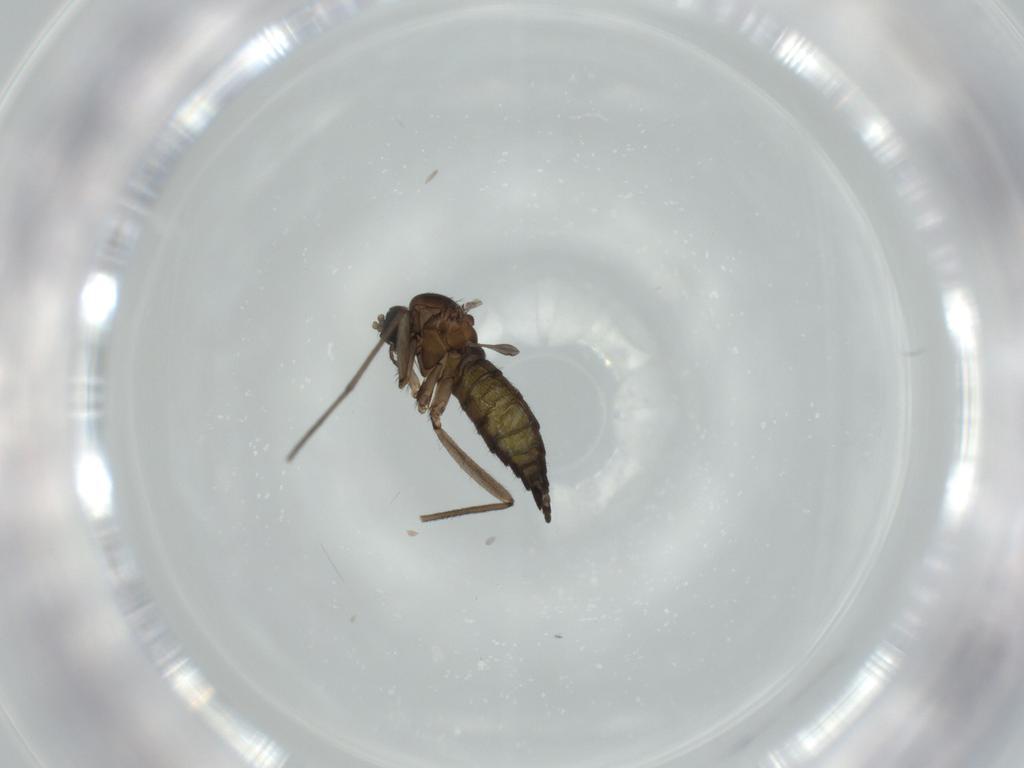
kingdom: Animalia
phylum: Arthropoda
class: Insecta
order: Diptera
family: Sciaridae
